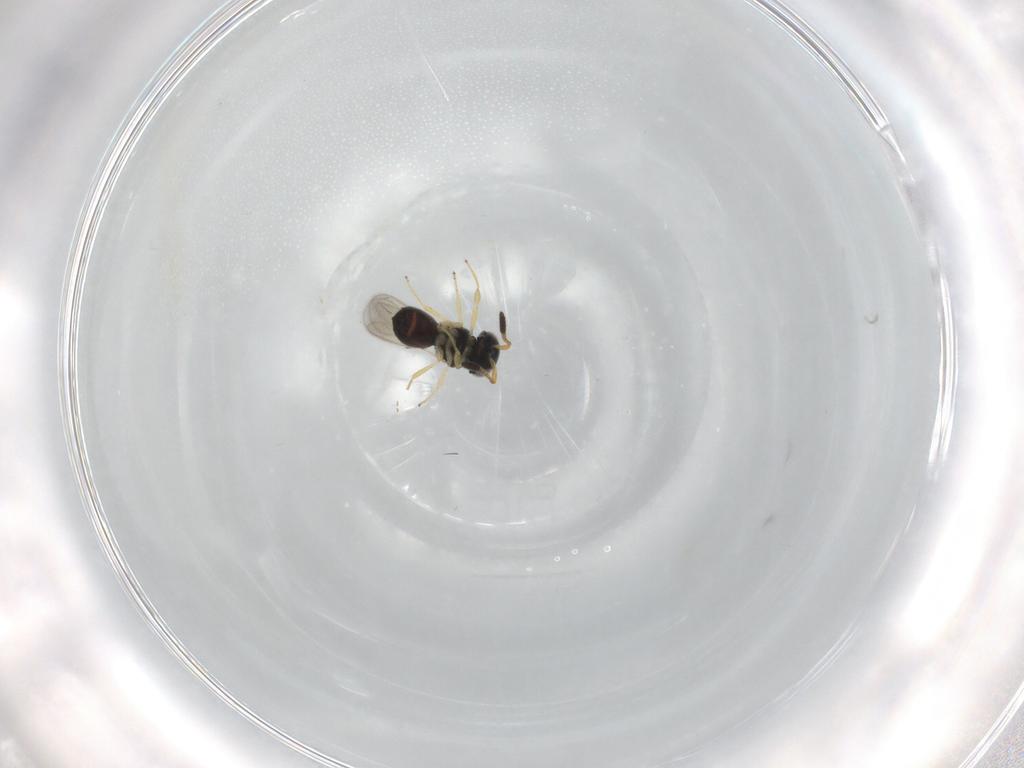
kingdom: Animalia
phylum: Arthropoda
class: Insecta
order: Hymenoptera
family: Scelionidae
